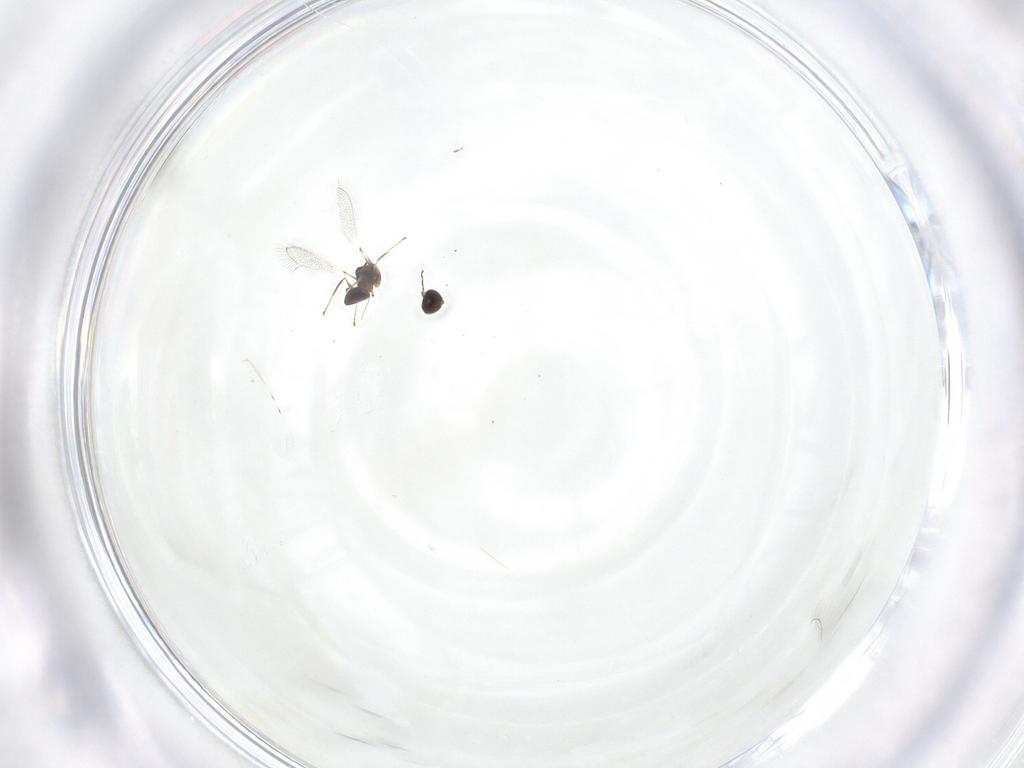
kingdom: Animalia
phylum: Arthropoda
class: Insecta
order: Hymenoptera
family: Mymaridae
